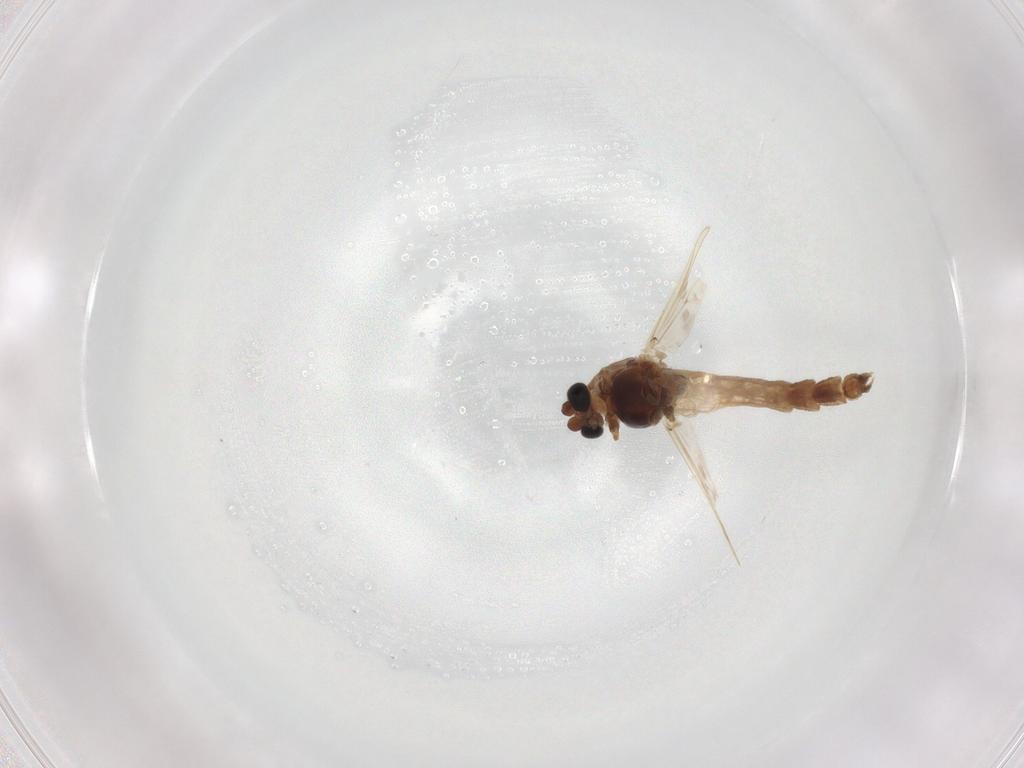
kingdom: Animalia
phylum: Arthropoda
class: Insecta
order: Diptera
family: Chironomidae
